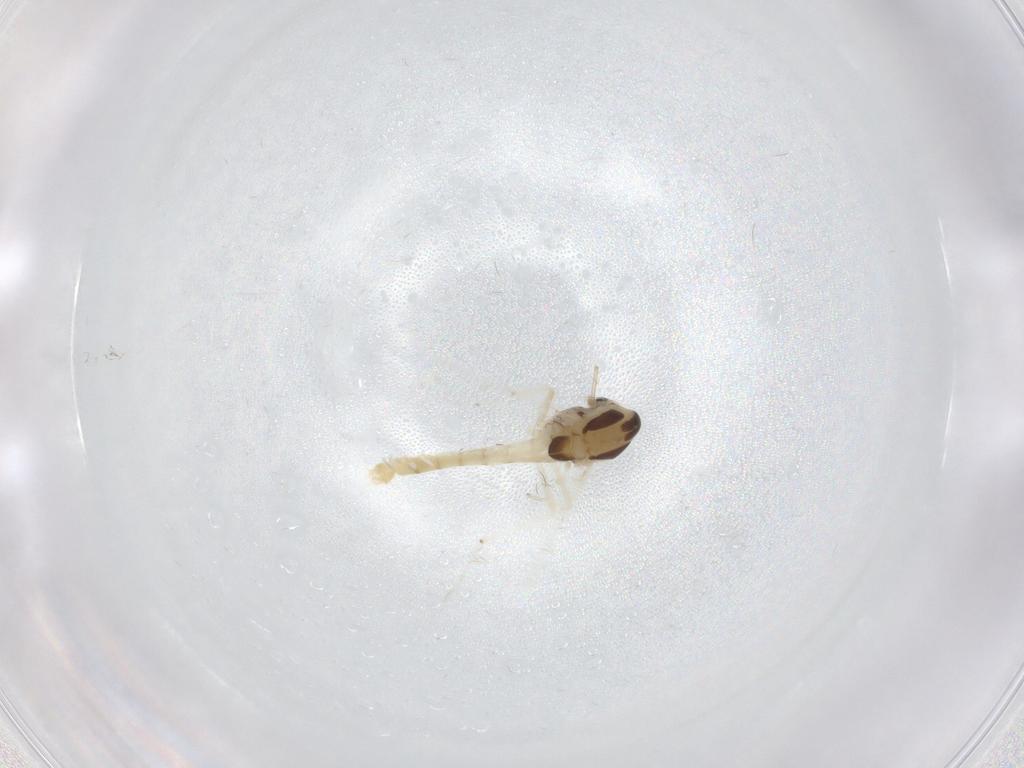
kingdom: Animalia
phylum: Arthropoda
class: Insecta
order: Diptera
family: Chironomidae
